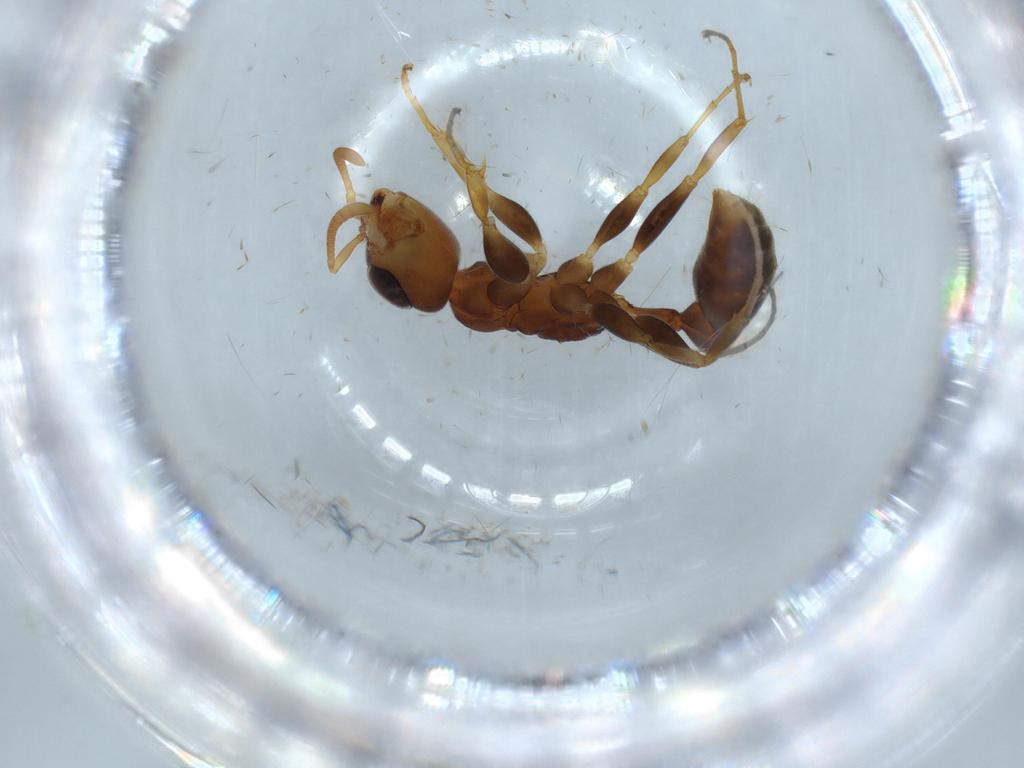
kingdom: Animalia
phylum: Arthropoda
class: Insecta
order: Hymenoptera
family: Formicidae
